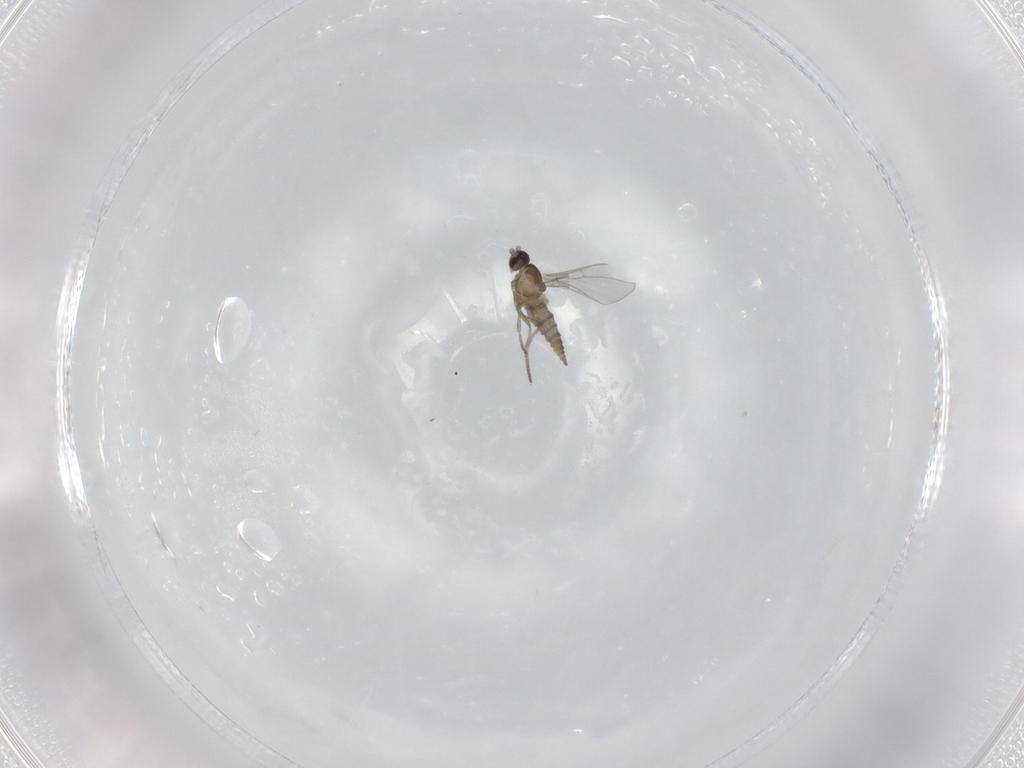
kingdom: Animalia
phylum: Arthropoda
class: Insecta
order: Diptera
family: Cecidomyiidae
